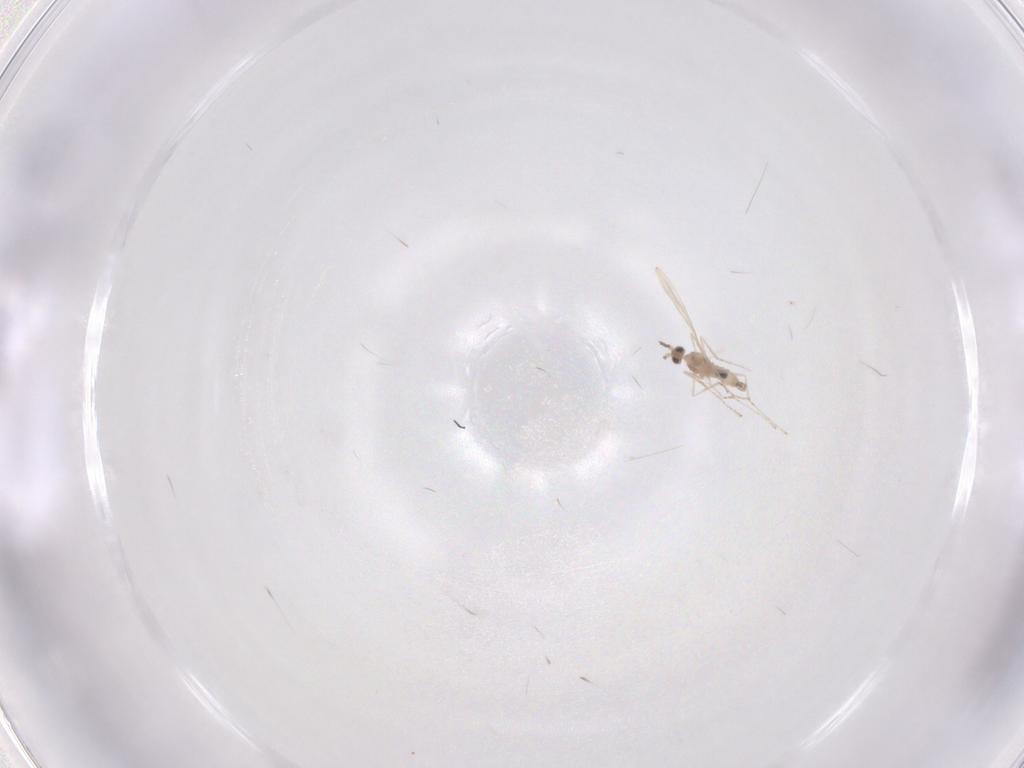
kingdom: Animalia
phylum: Arthropoda
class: Insecta
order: Diptera
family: Cecidomyiidae
